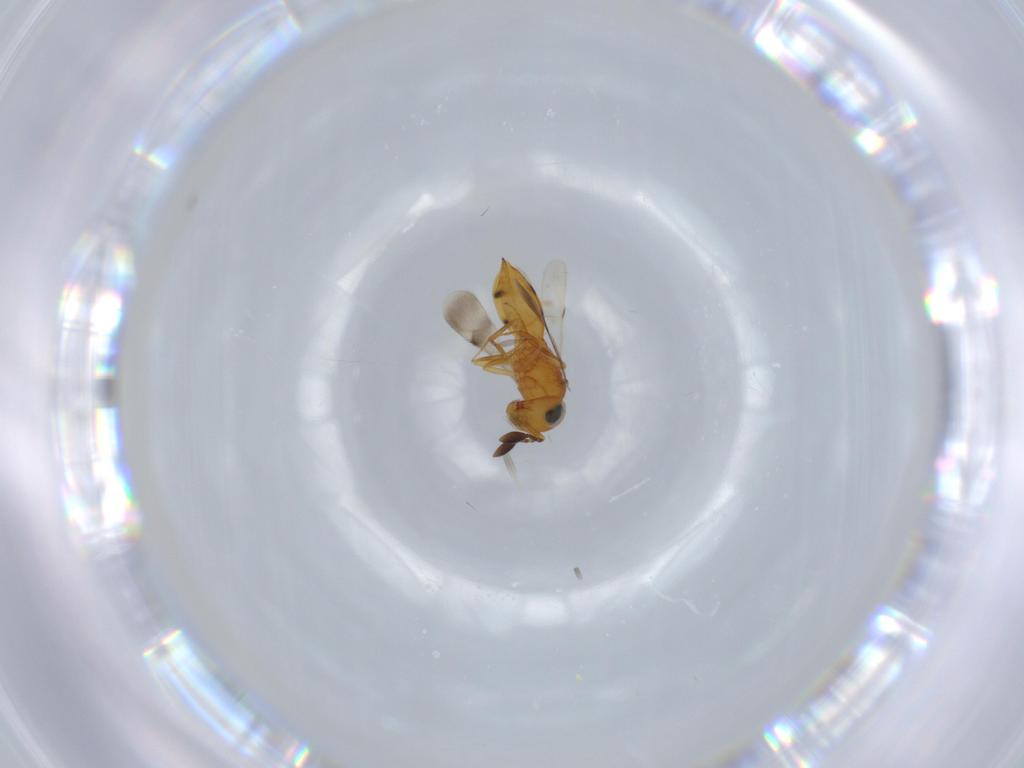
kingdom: Animalia
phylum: Arthropoda
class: Insecta
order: Hymenoptera
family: Scelionidae
